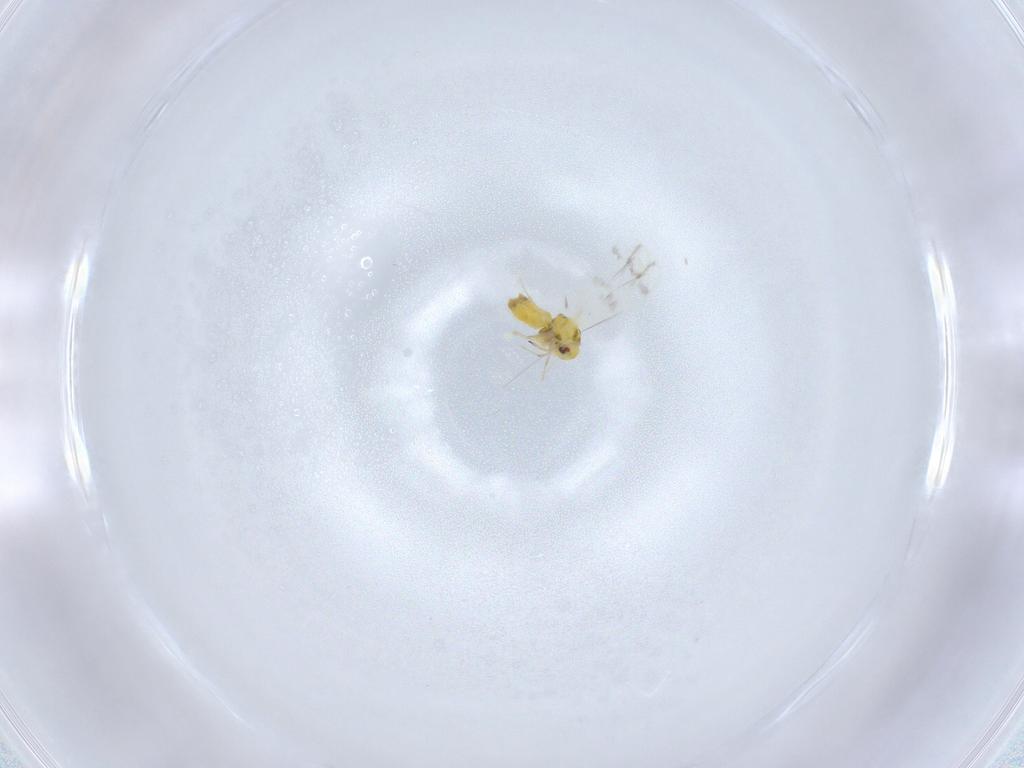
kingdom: Animalia
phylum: Arthropoda
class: Insecta
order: Hemiptera
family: Aleyrodidae
